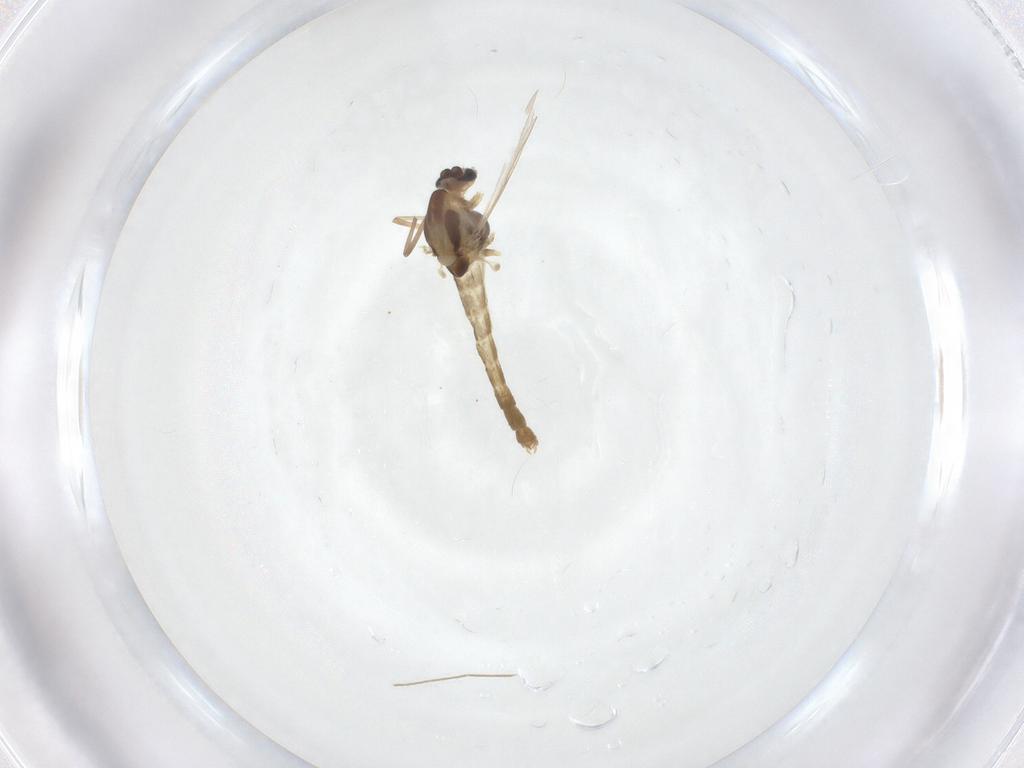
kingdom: Animalia
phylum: Arthropoda
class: Insecta
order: Diptera
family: Chironomidae
